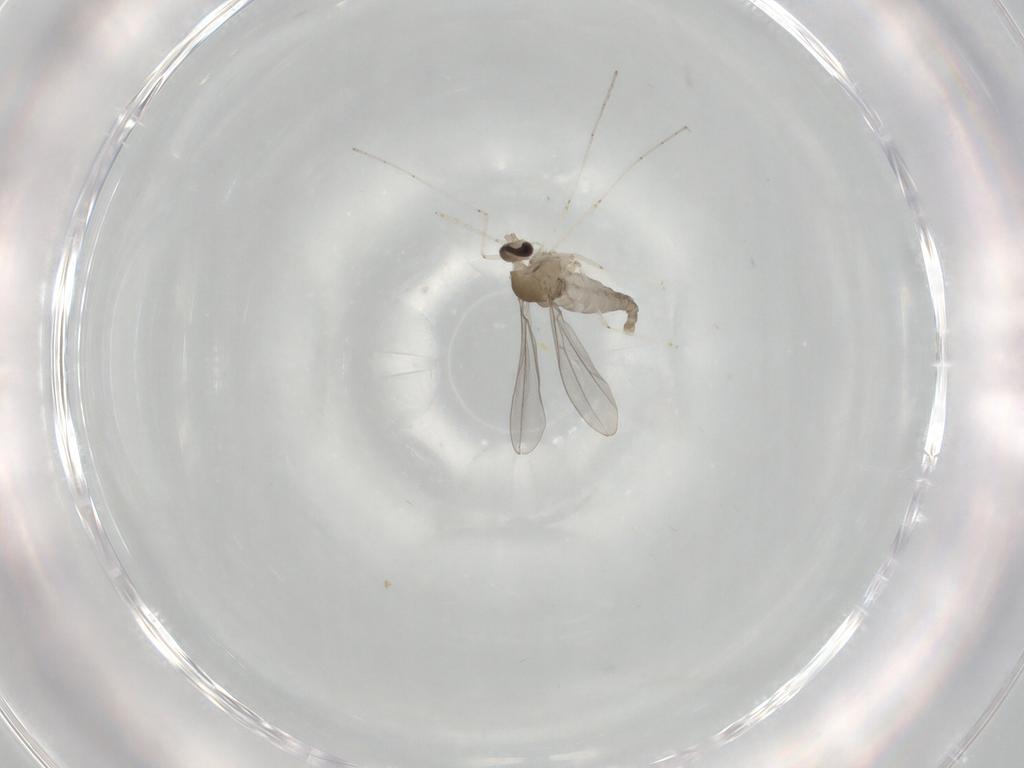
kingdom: Animalia
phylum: Arthropoda
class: Insecta
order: Diptera
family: Cecidomyiidae
